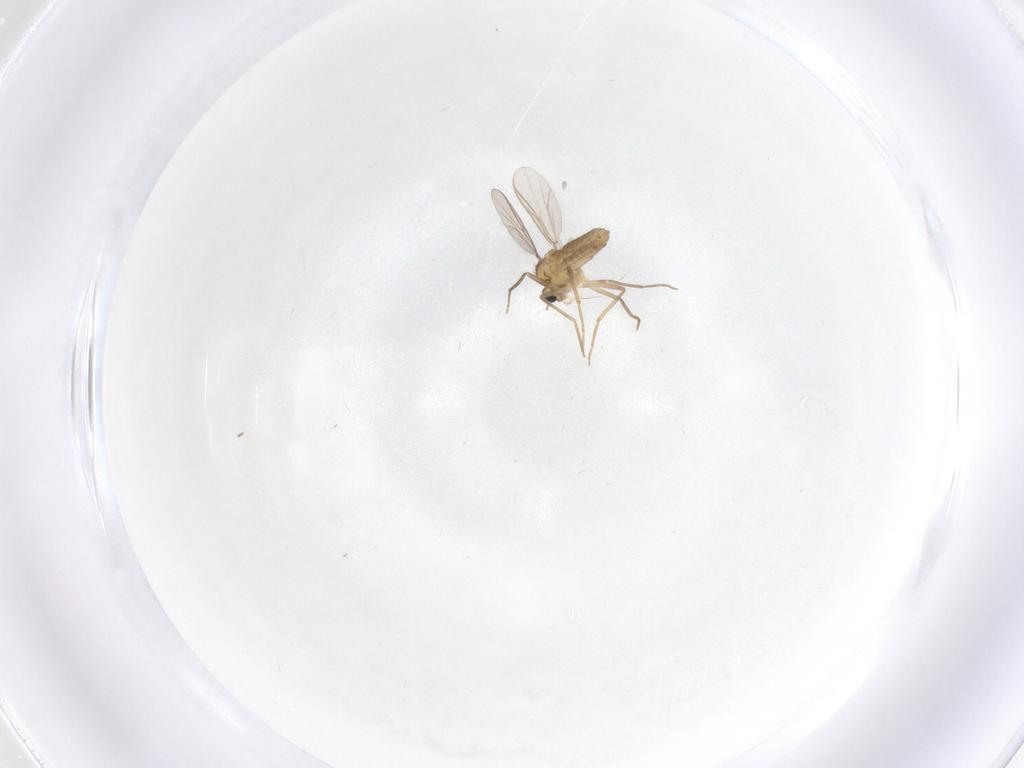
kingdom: Animalia
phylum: Arthropoda
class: Insecta
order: Diptera
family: Chironomidae
